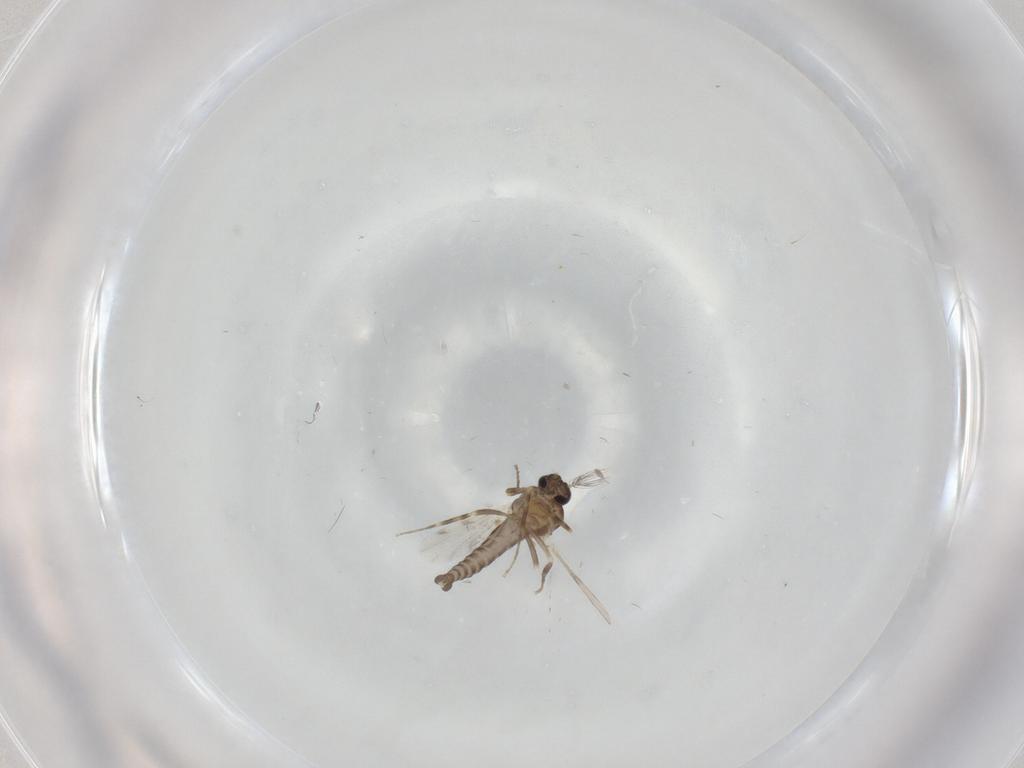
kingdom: Animalia
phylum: Arthropoda
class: Insecta
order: Diptera
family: Ceratopogonidae
